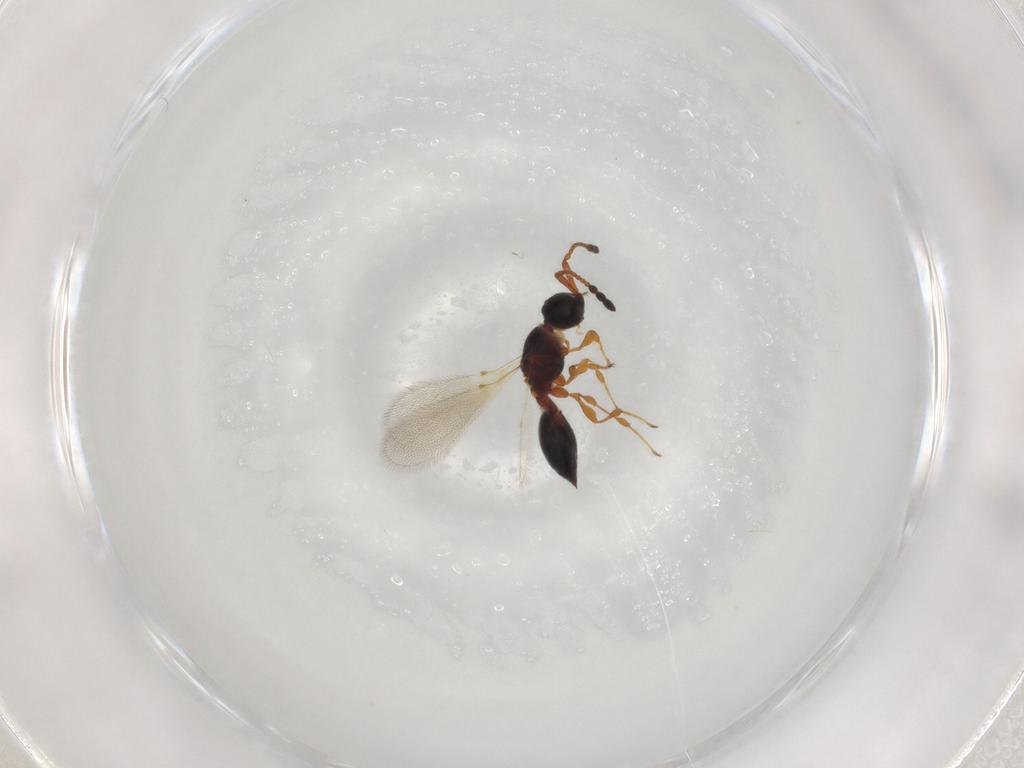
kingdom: Animalia
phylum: Arthropoda
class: Insecta
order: Hymenoptera
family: Diapriidae
